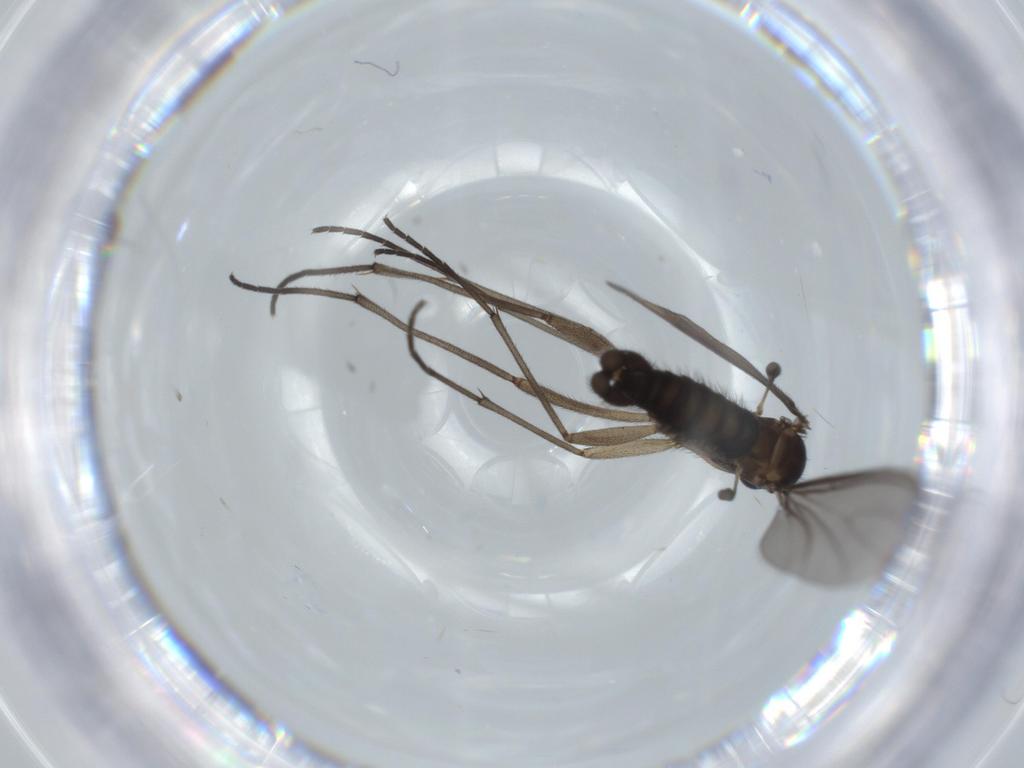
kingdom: Animalia
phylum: Arthropoda
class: Insecta
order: Diptera
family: Sciaridae
